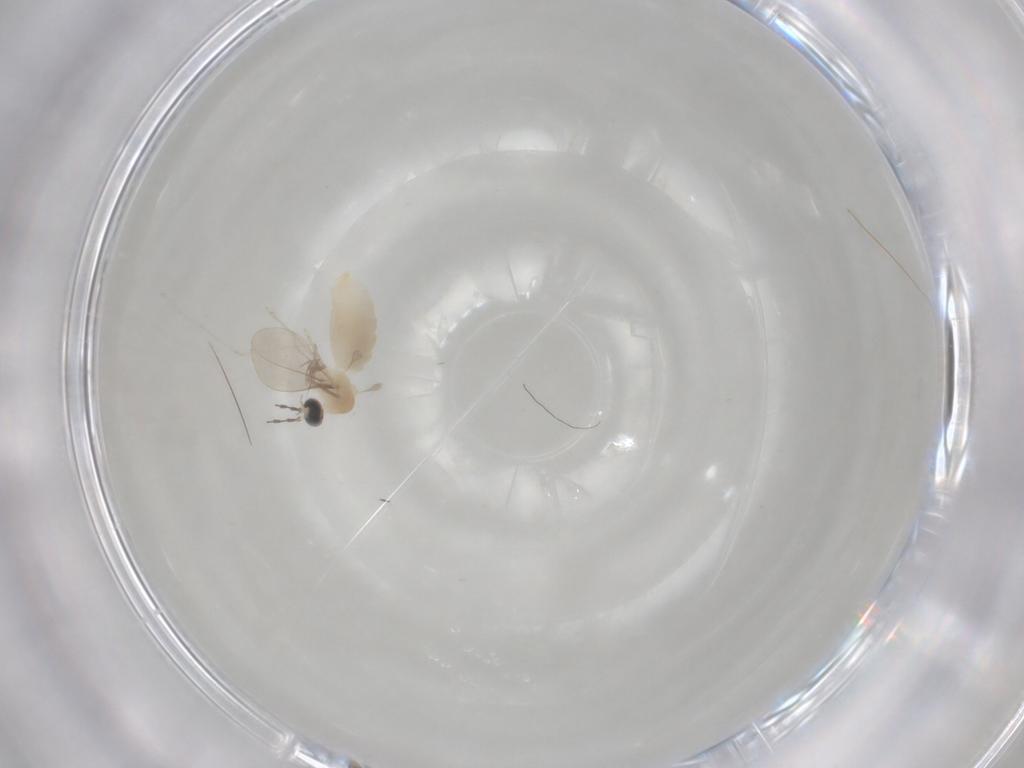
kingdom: Animalia
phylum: Arthropoda
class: Insecta
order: Diptera
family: Cecidomyiidae
